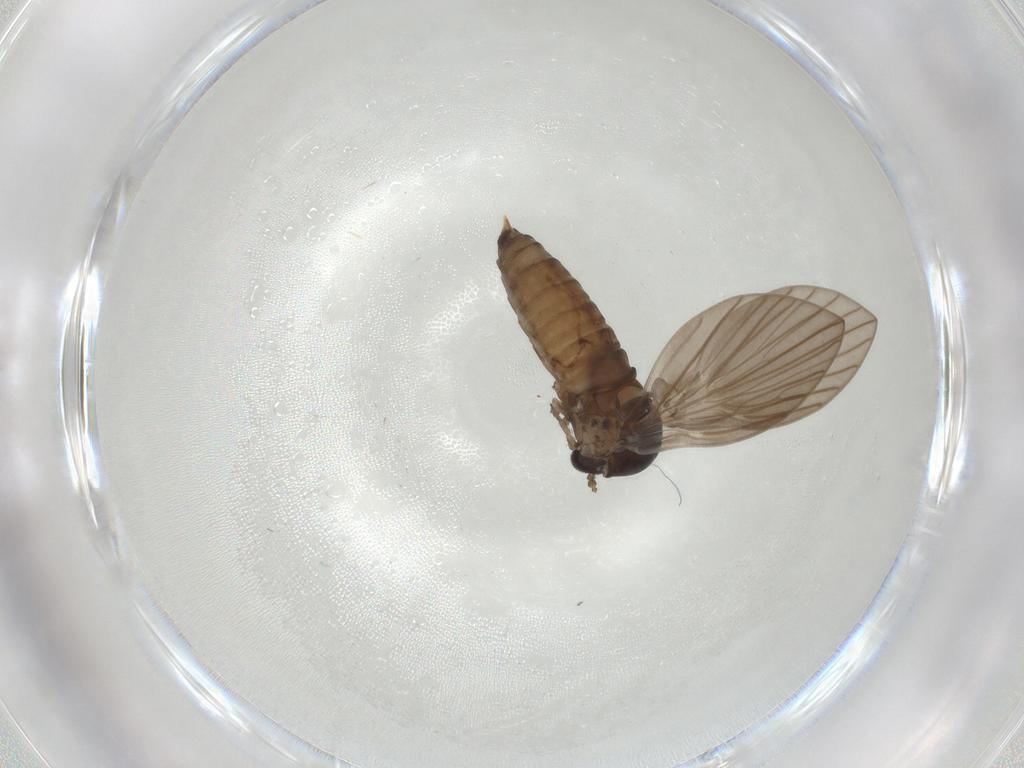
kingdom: Animalia
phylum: Arthropoda
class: Insecta
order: Diptera
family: Psychodidae
